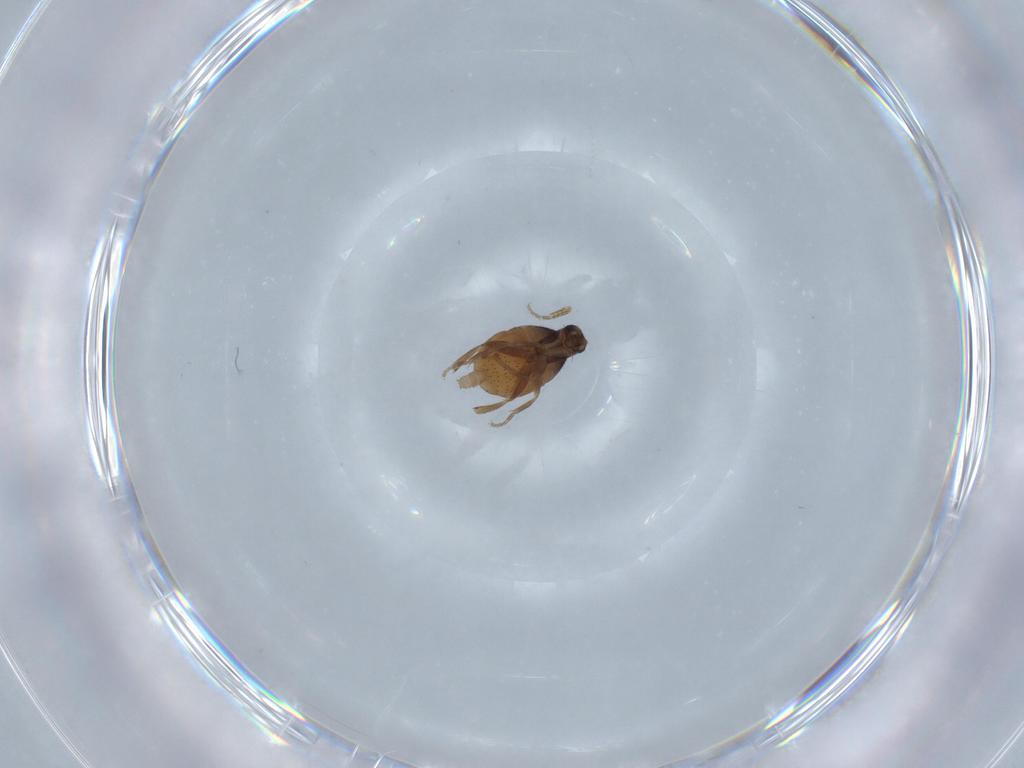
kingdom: Animalia
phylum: Arthropoda
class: Insecta
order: Diptera
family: Phoridae
